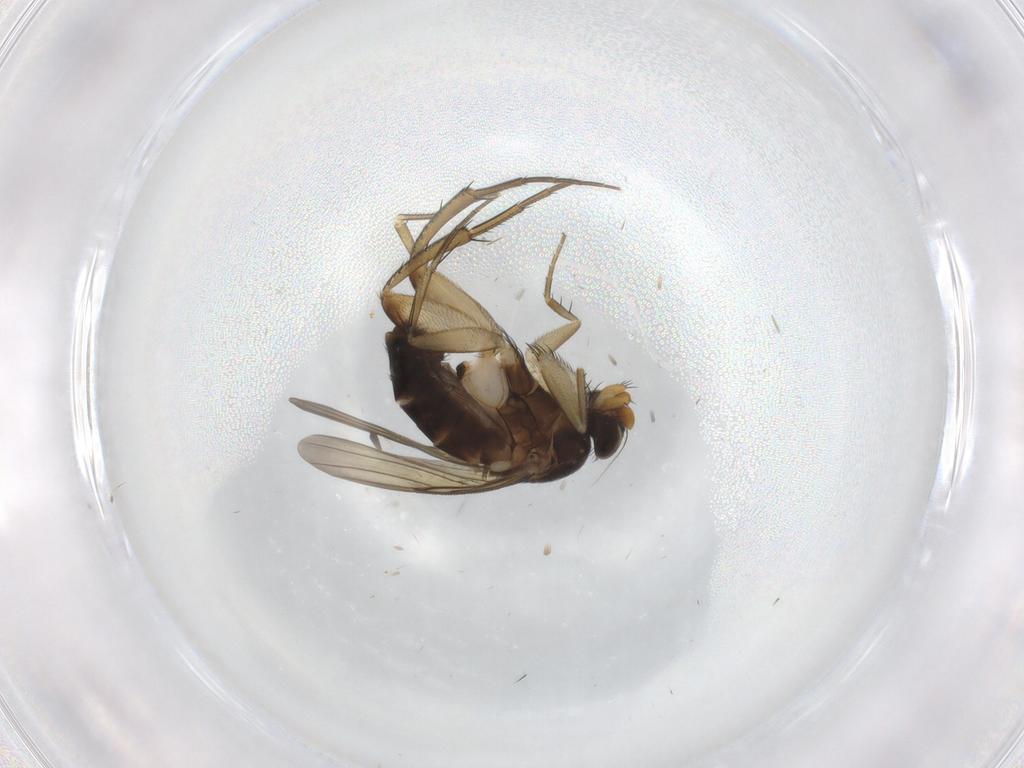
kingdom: Animalia
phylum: Arthropoda
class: Insecta
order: Diptera
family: Phoridae
